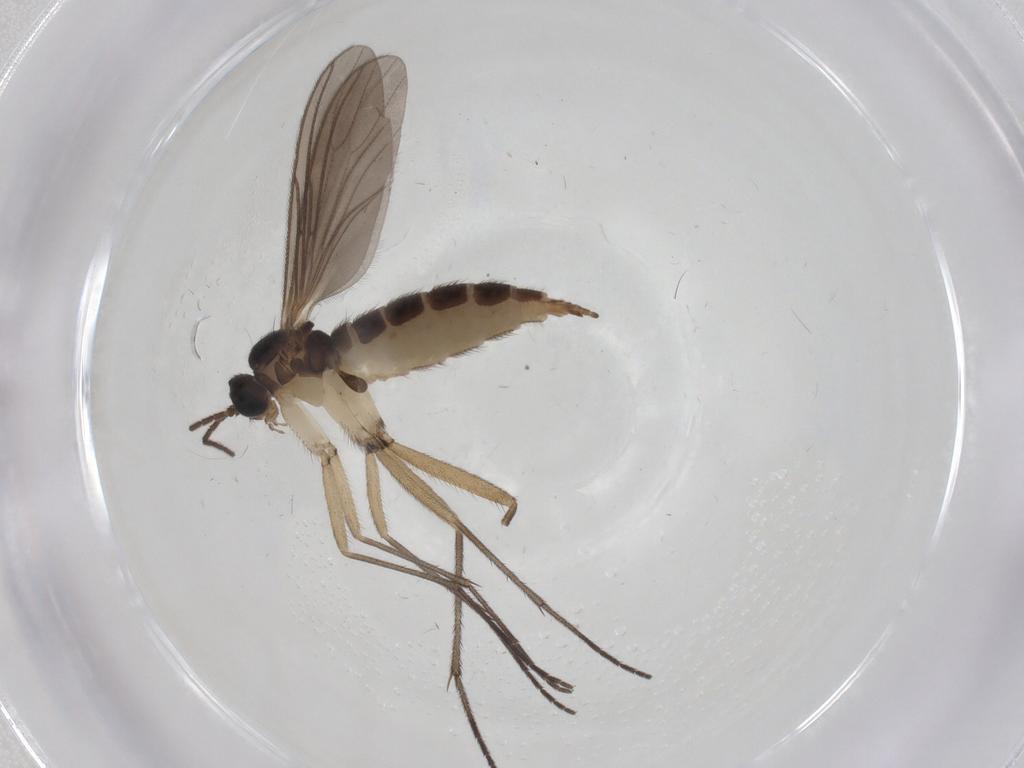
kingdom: Animalia
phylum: Arthropoda
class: Insecta
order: Diptera
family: Sciaridae
